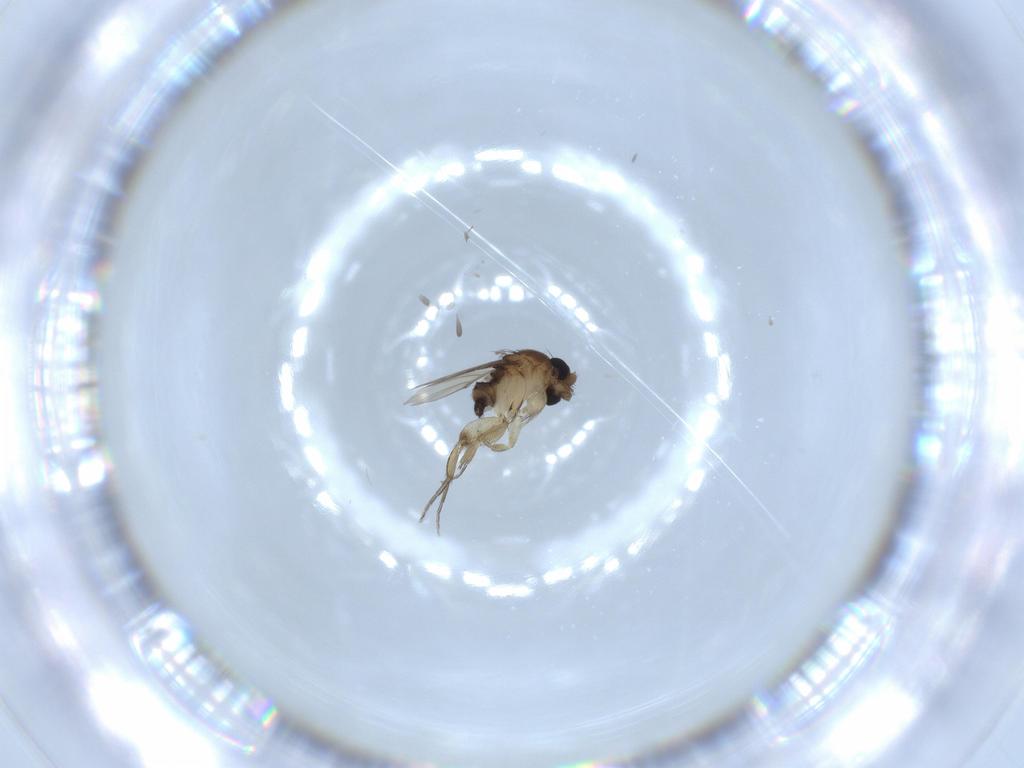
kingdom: Animalia
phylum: Arthropoda
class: Insecta
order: Diptera
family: Phoridae
